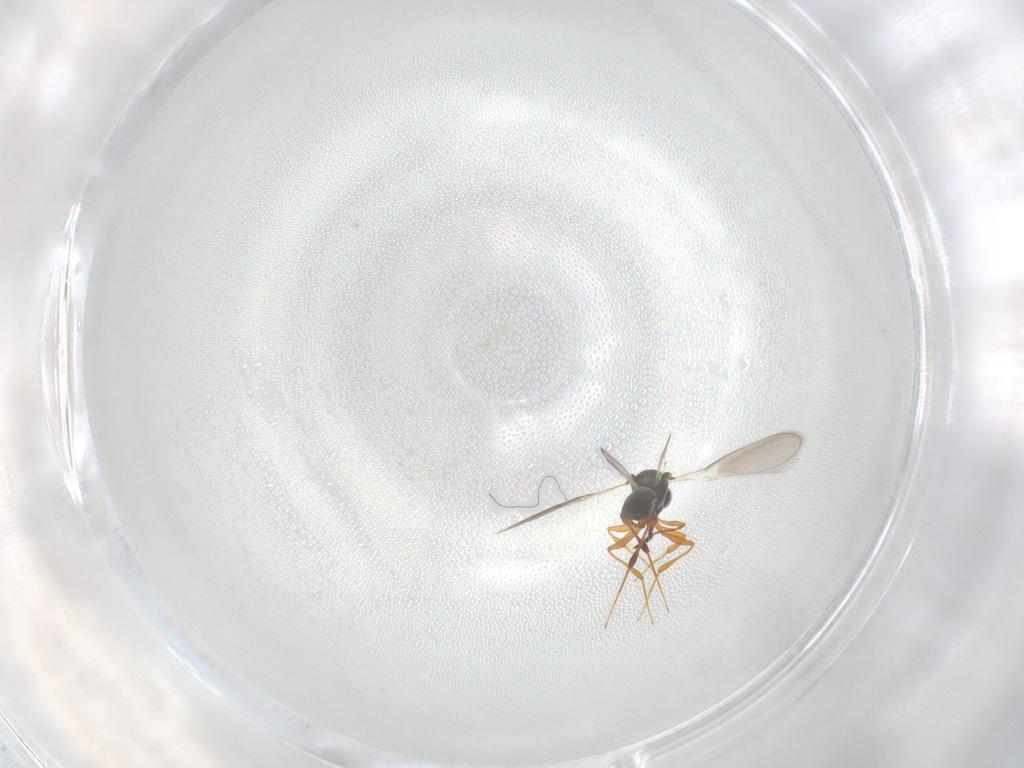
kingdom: Animalia
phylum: Arthropoda
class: Insecta
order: Hymenoptera
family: Platygastridae
